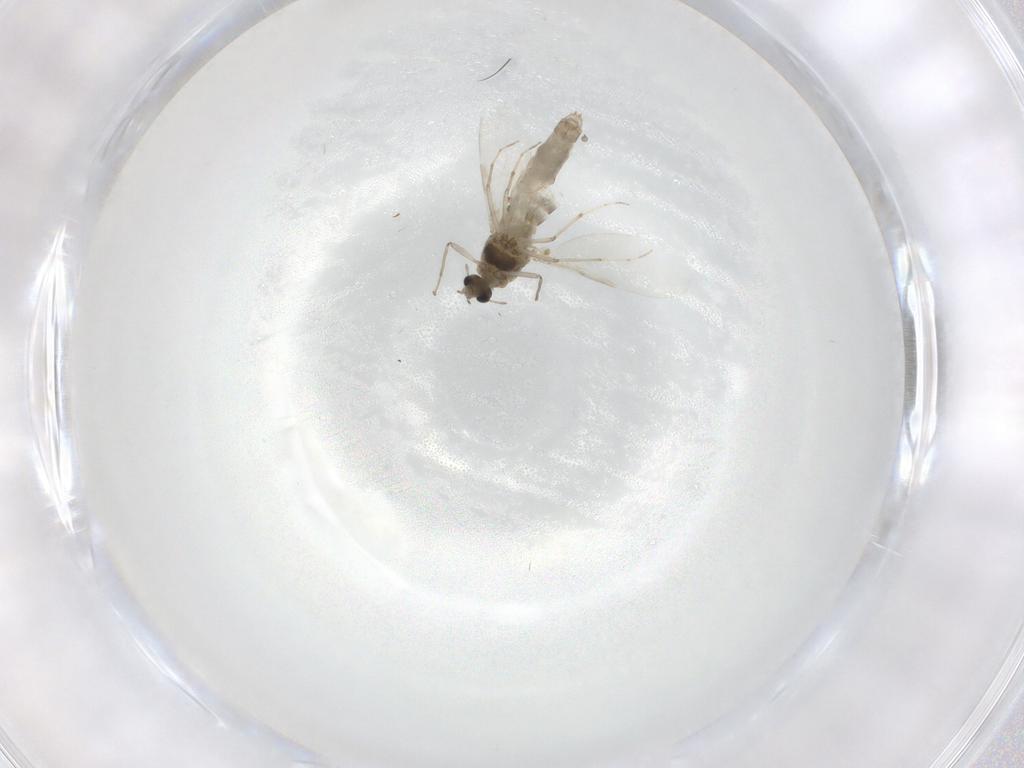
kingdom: Animalia
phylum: Arthropoda
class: Insecta
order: Diptera
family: Chironomidae
